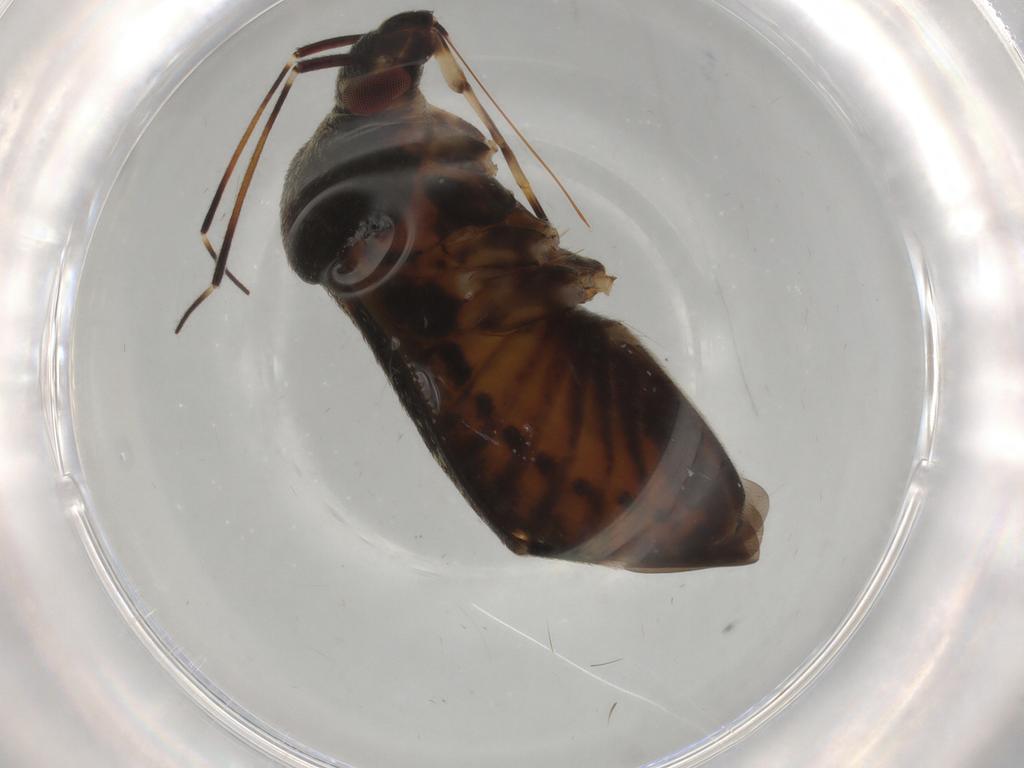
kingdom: Animalia
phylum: Arthropoda
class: Insecta
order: Hemiptera
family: Miridae
